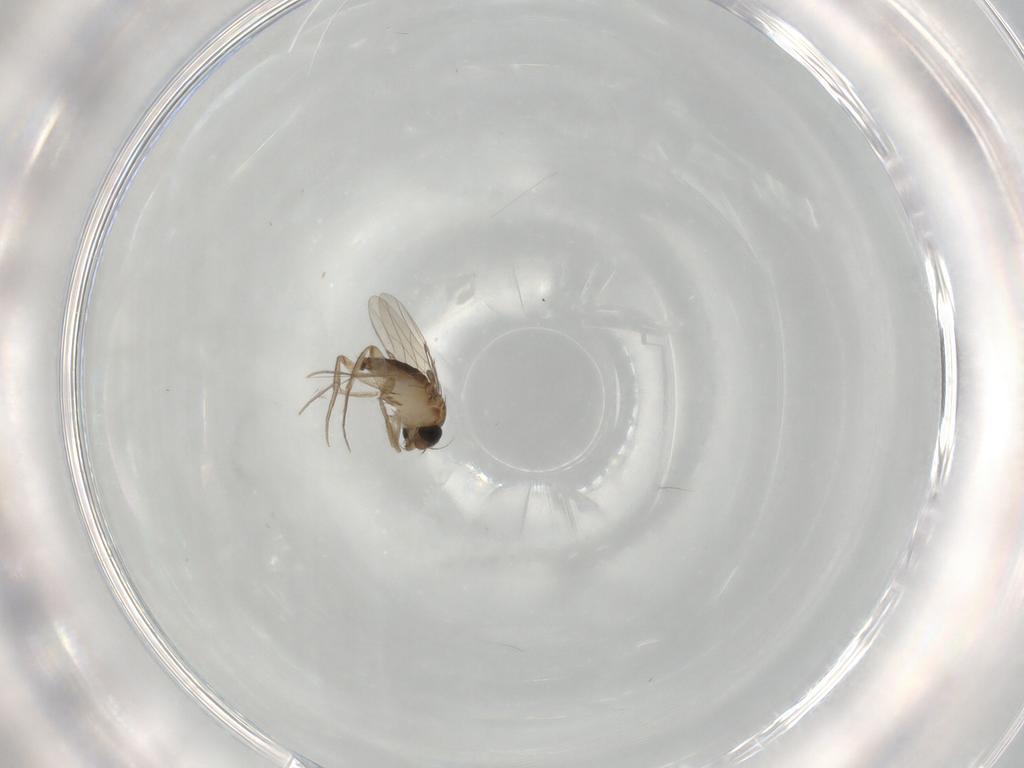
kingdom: Animalia
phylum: Arthropoda
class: Insecta
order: Diptera
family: Phoridae
